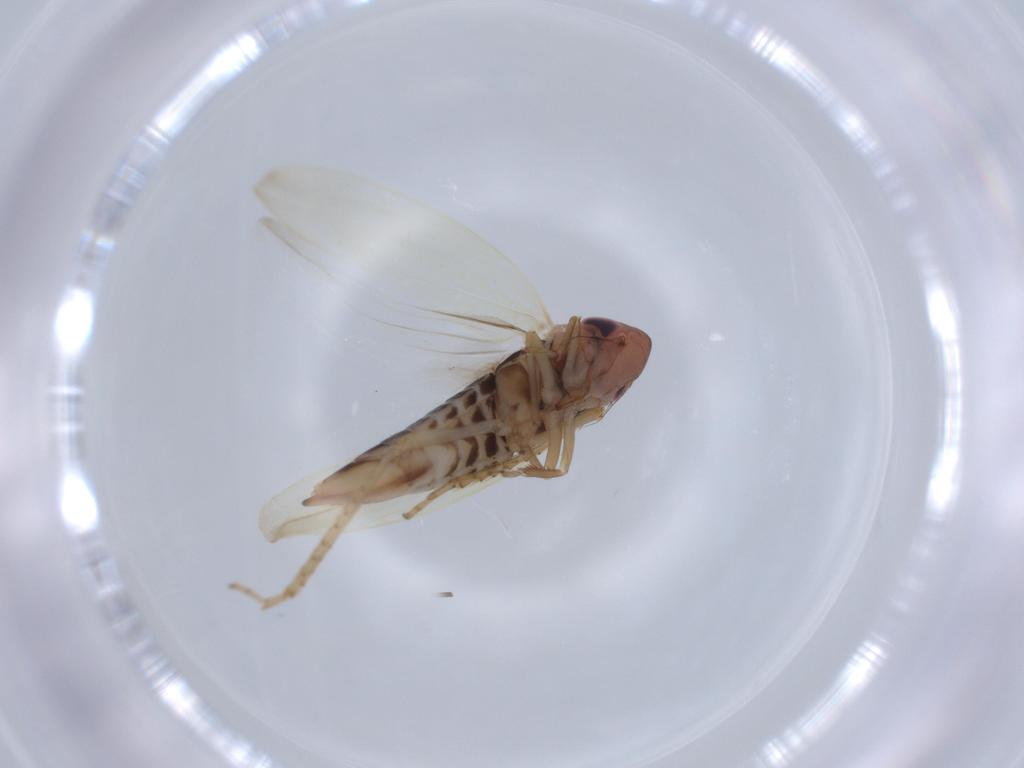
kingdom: Animalia
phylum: Arthropoda
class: Insecta
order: Hemiptera
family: Cicadellidae
